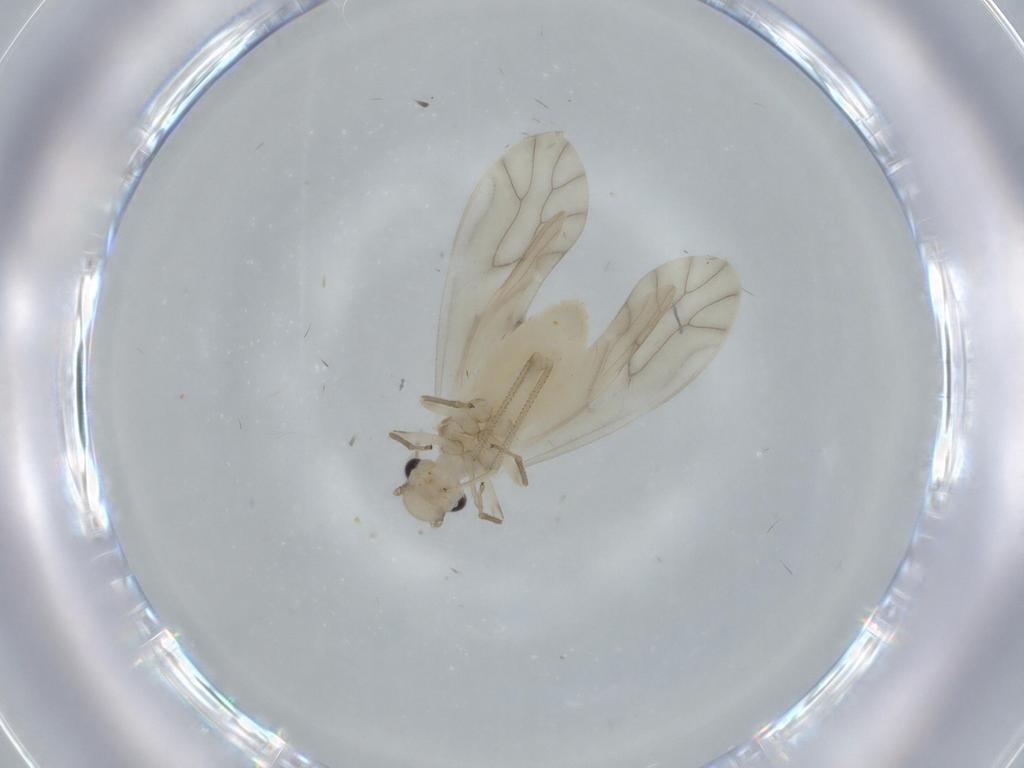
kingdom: Animalia
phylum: Arthropoda
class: Insecta
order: Psocodea
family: Caeciliusidae
